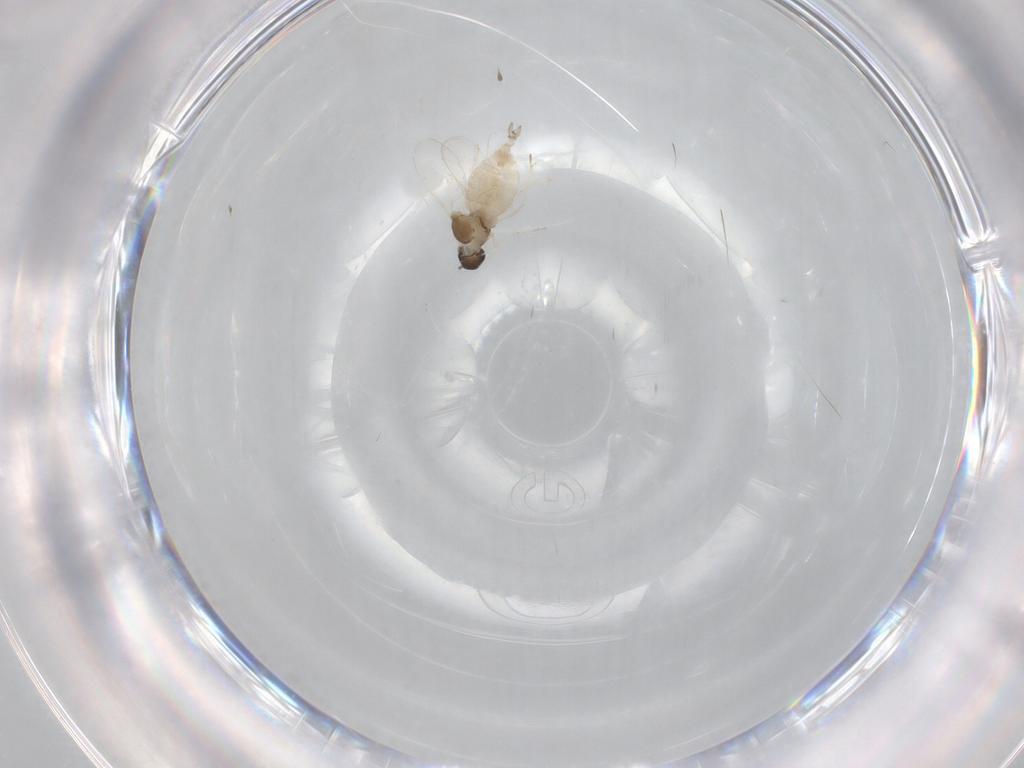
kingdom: Animalia
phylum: Arthropoda
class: Insecta
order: Diptera
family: Cecidomyiidae
